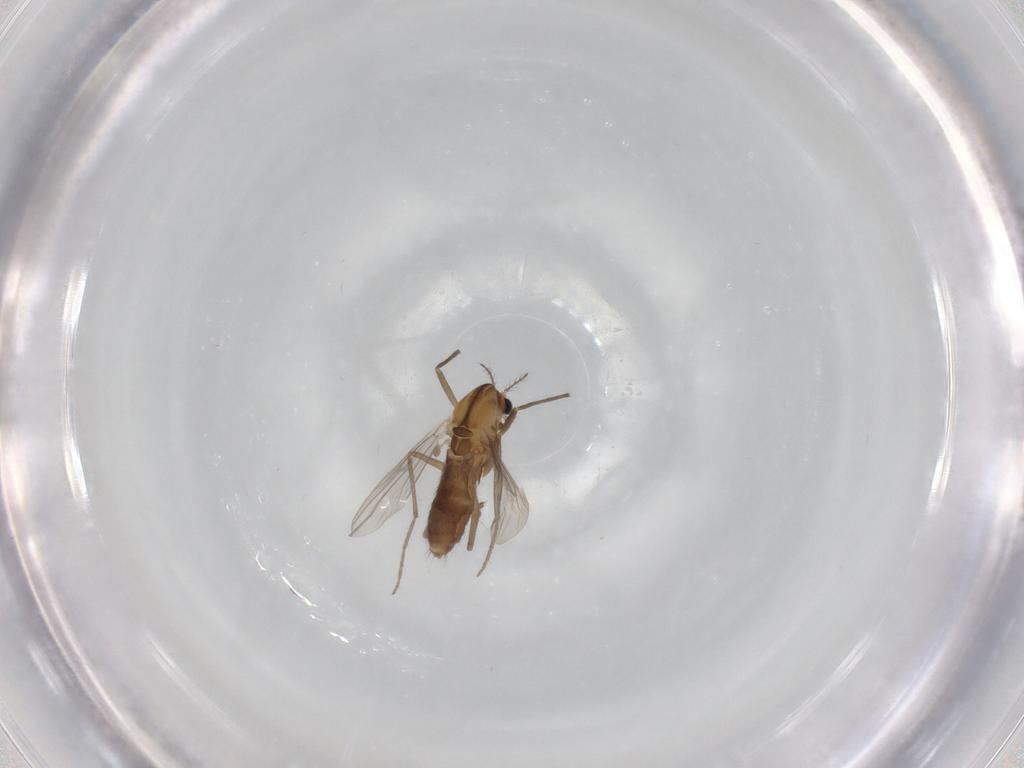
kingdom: Animalia
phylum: Arthropoda
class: Insecta
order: Diptera
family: Chironomidae
